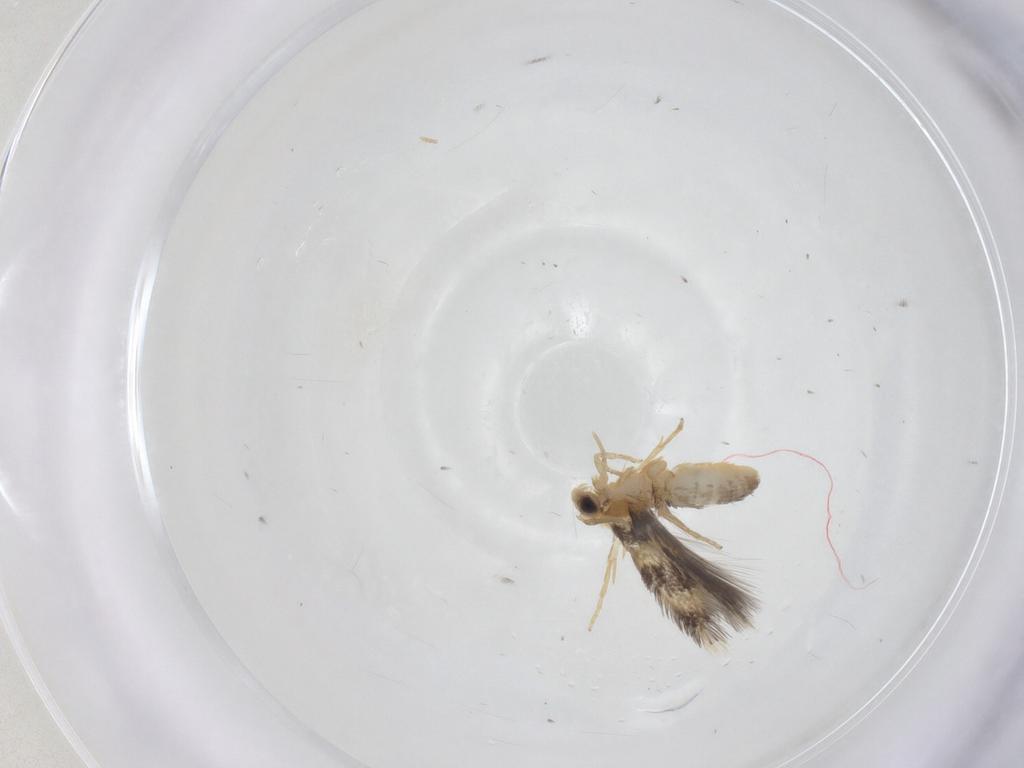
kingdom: Animalia
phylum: Arthropoda
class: Insecta
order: Lepidoptera
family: Nepticulidae
